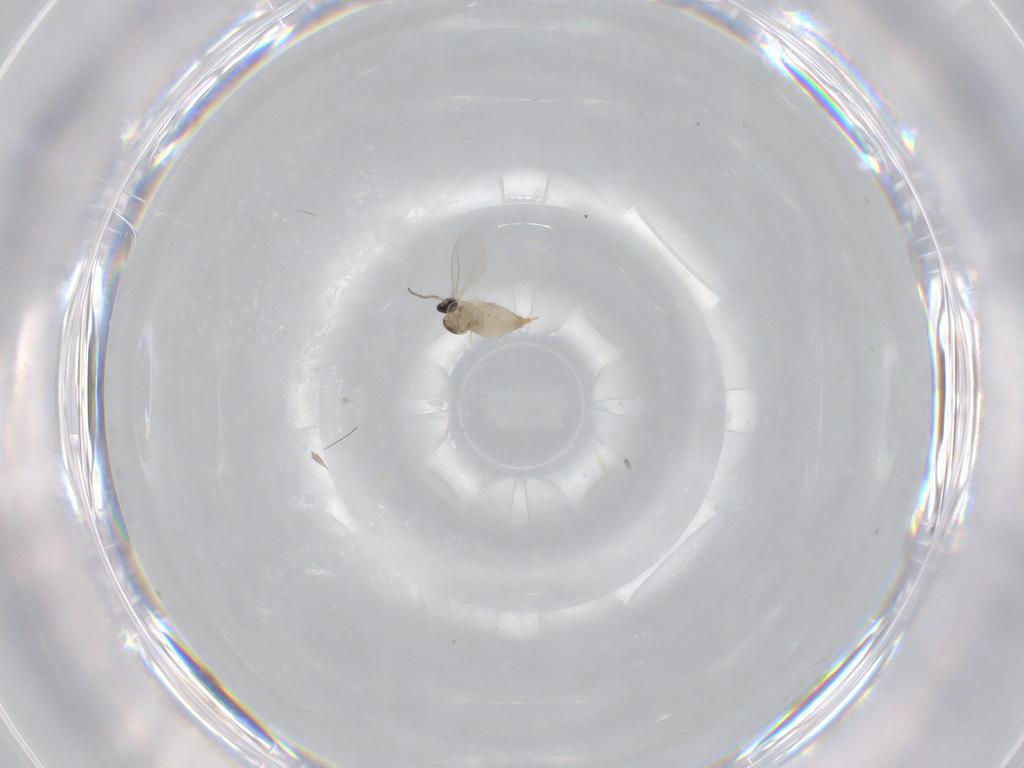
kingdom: Animalia
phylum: Arthropoda
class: Insecta
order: Diptera
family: Cecidomyiidae
